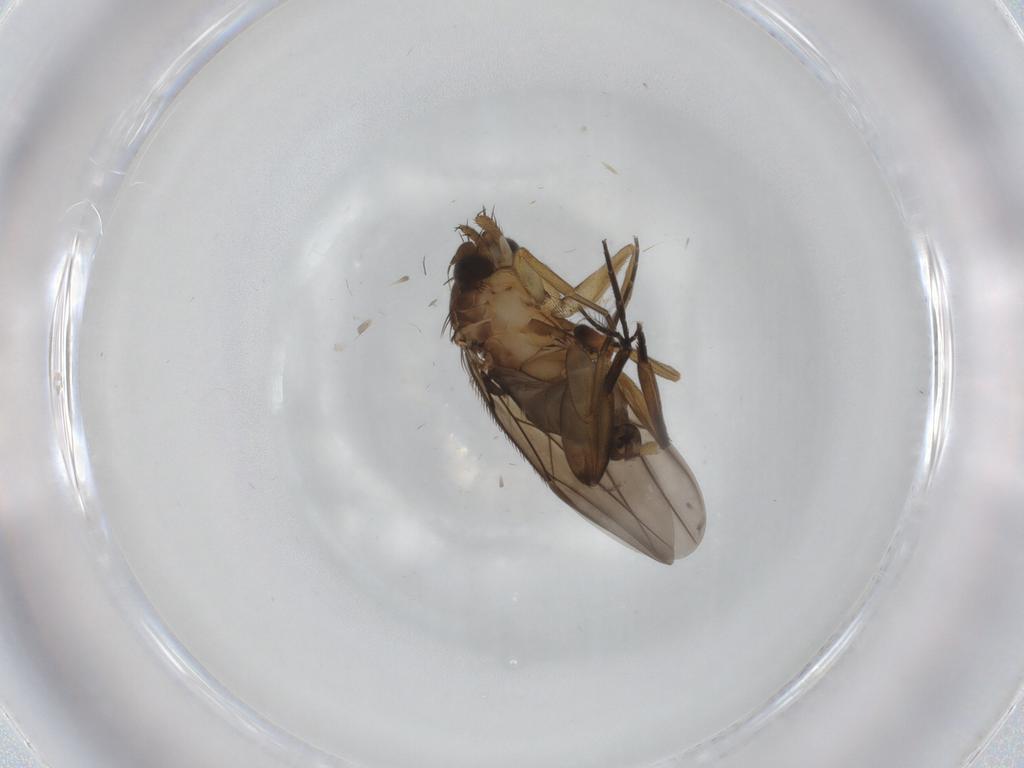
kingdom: Animalia
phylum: Arthropoda
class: Insecta
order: Diptera
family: Phoridae
